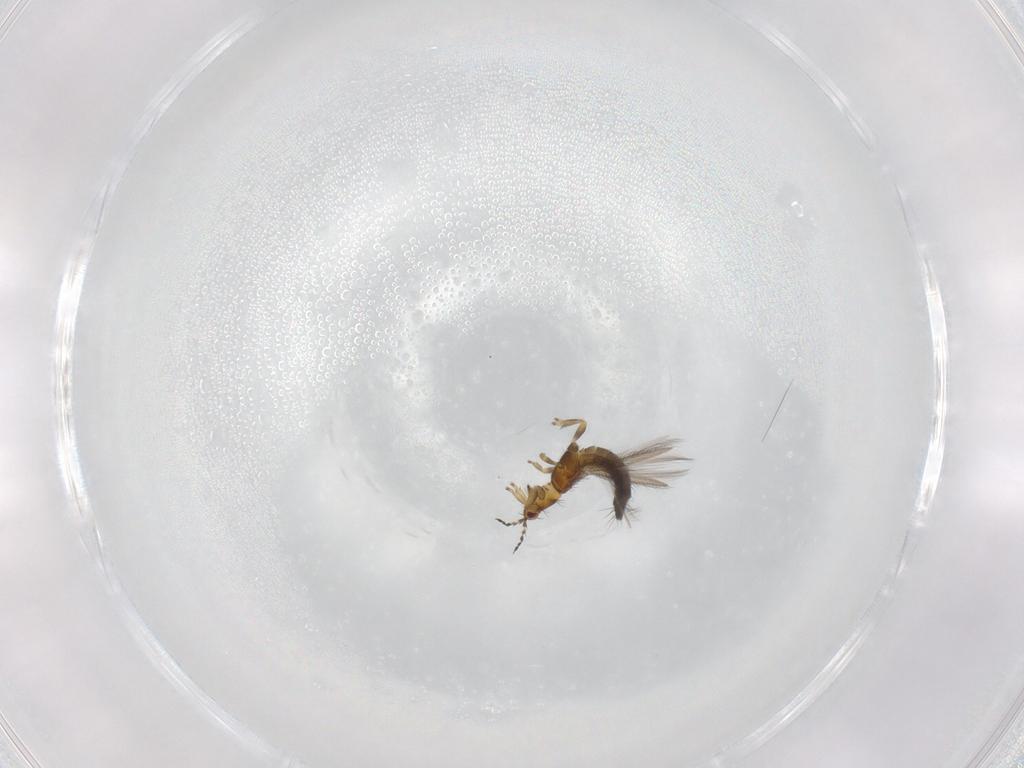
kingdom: Animalia
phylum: Arthropoda
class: Insecta
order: Thysanoptera
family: Thripidae
